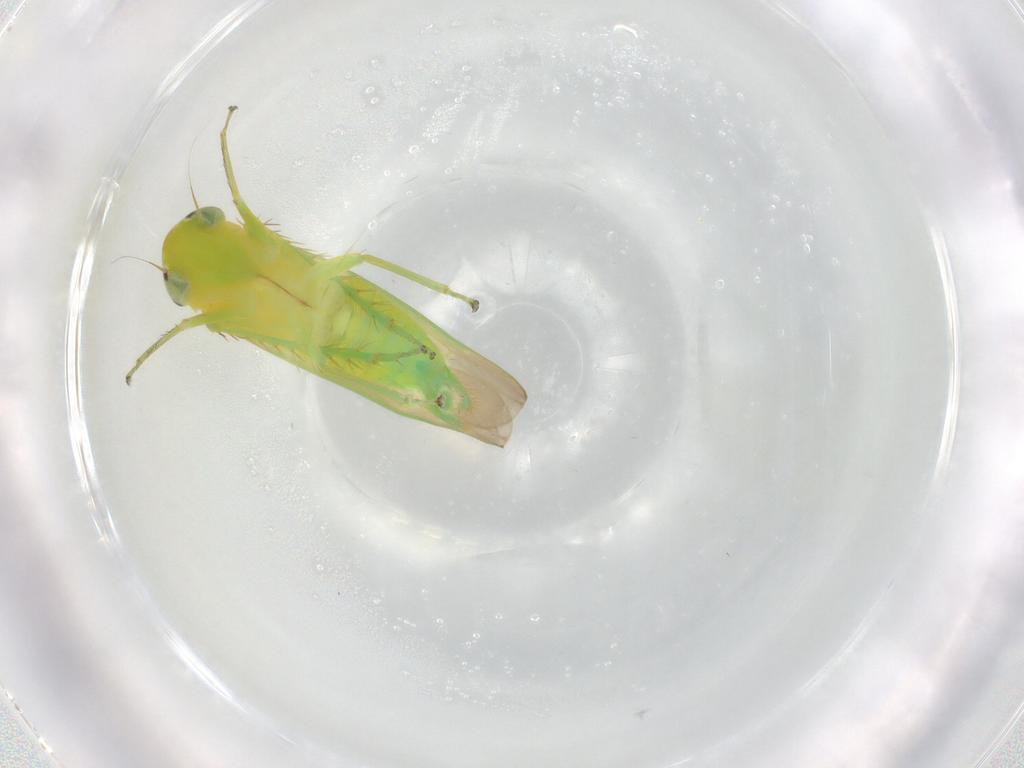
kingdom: Animalia
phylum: Arthropoda
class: Insecta
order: Hemiptera
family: Cicadellidae
